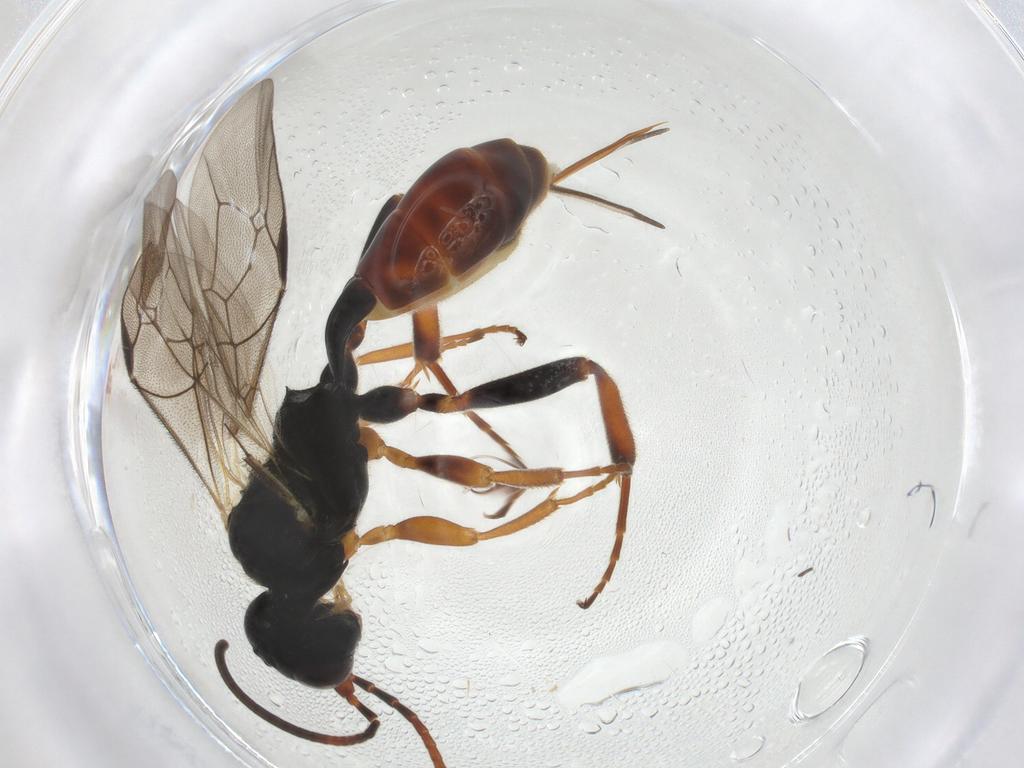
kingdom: Animalia
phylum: Arthropoda
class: Insecta
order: Hymenoptera
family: Ichneumonidae
